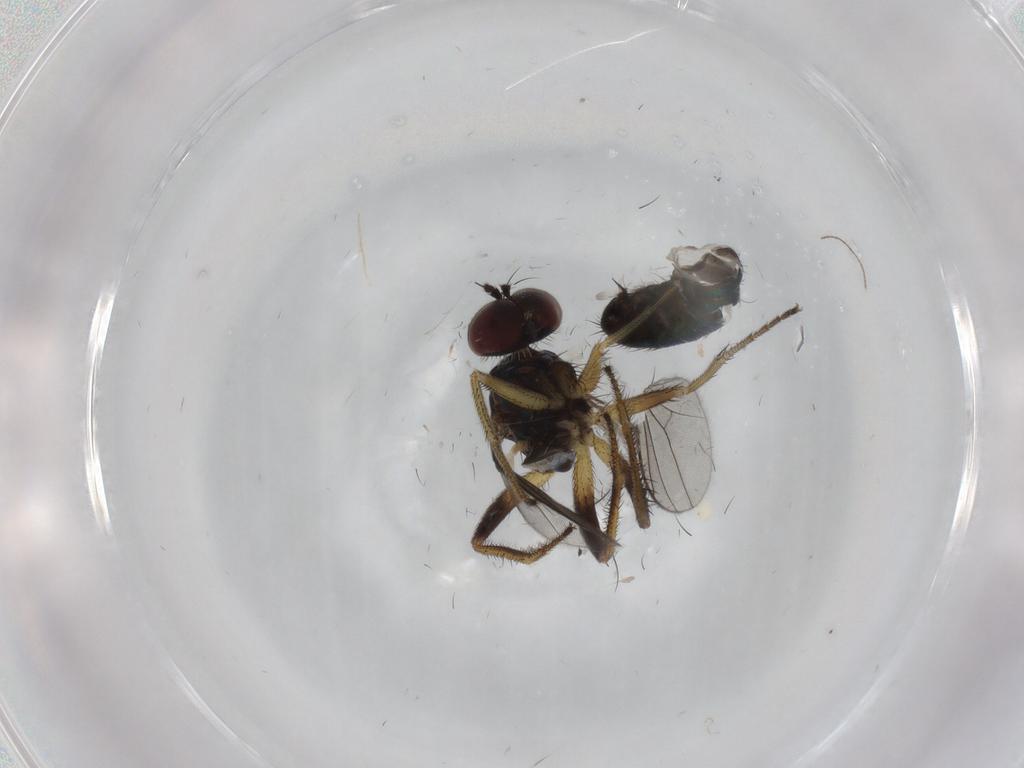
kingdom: Animalia
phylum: Arthropoda
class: Insecta
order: Diptera
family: Dolichopodidae
